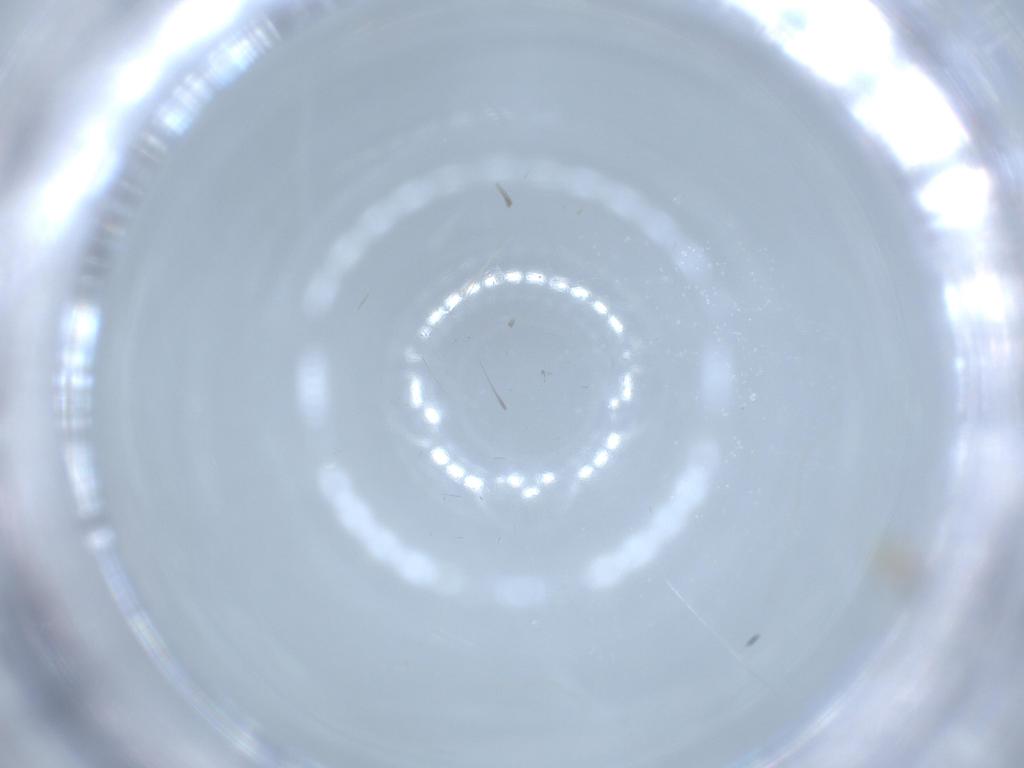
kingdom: Animalia
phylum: Arthropoda
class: Insecta
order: Diptera
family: Cecidomyiidae
